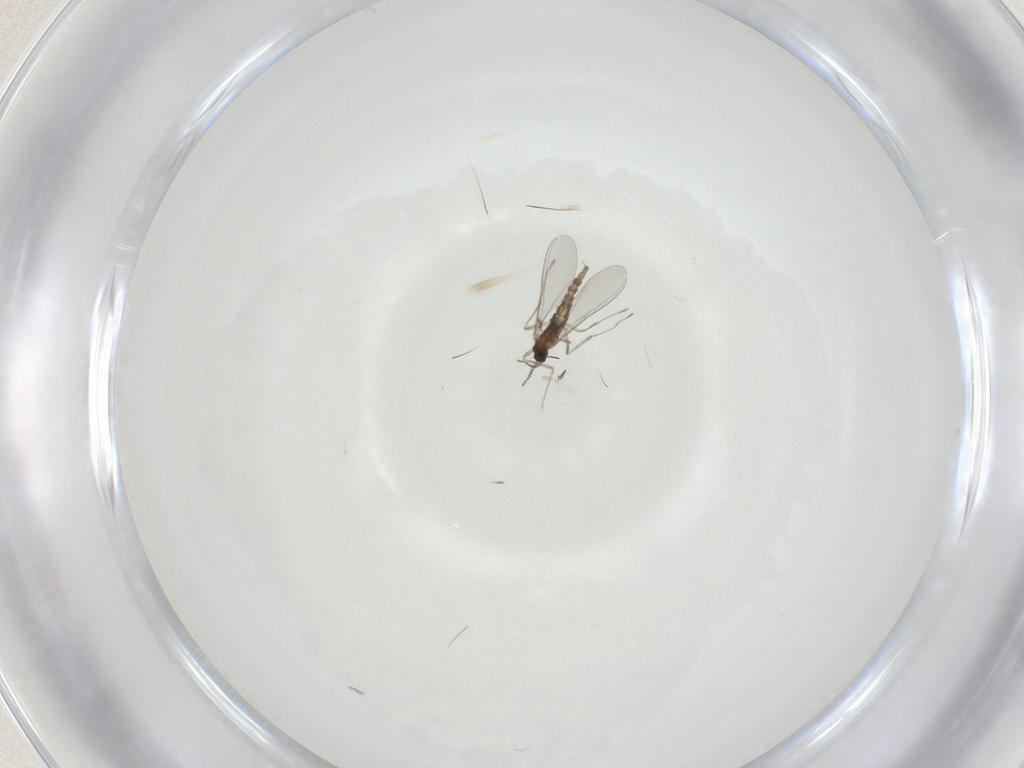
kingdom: Animalia
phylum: Arthropoda
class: Insecta
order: Diptera
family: Cecidomyiidae
